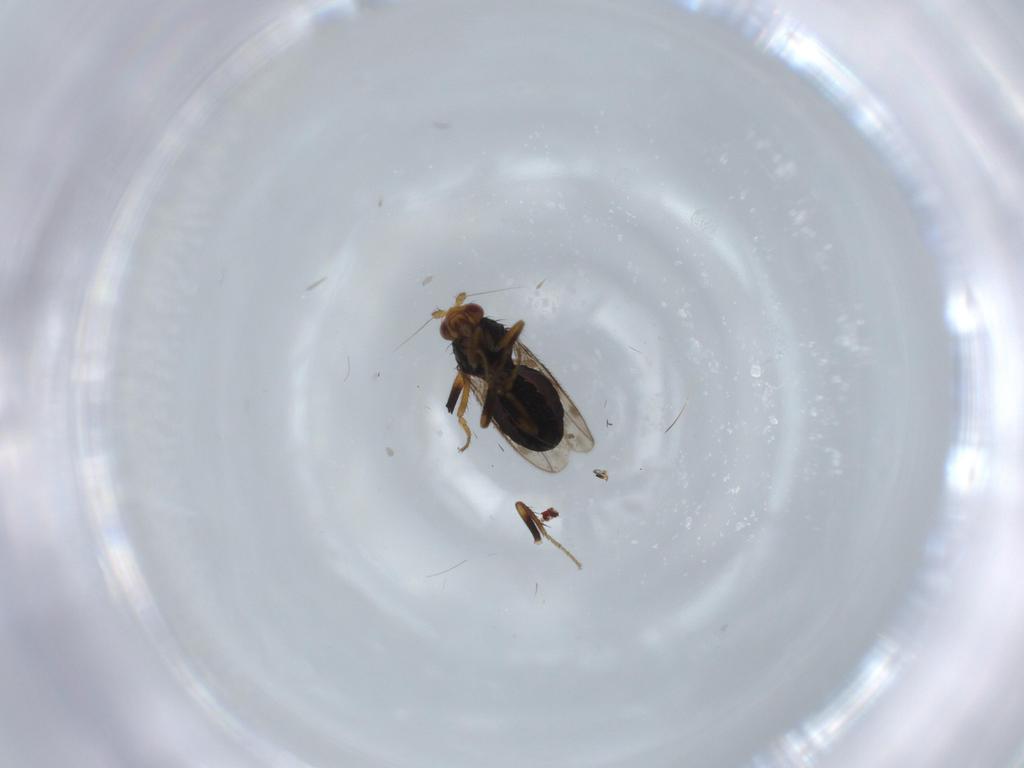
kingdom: Animalia
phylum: Arthropoda
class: Insecta
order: Diptera
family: Sphaeroceridae
